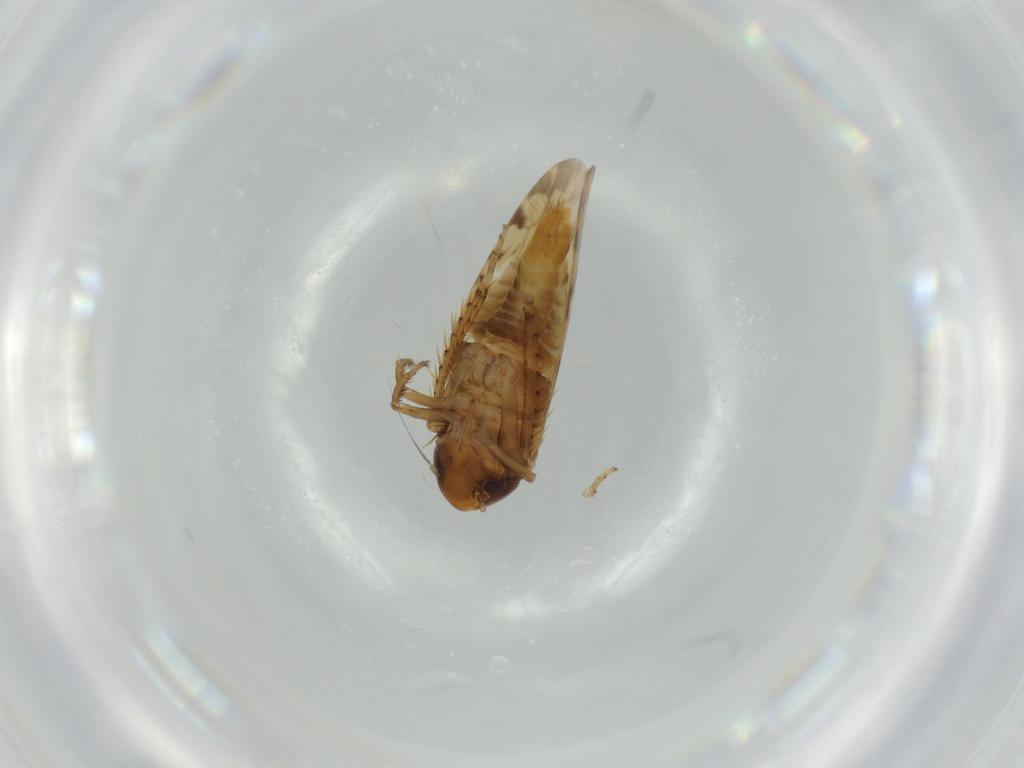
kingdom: Animalia
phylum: Arthropoda
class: Insecta
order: Hemiptera
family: Cicadellidae
